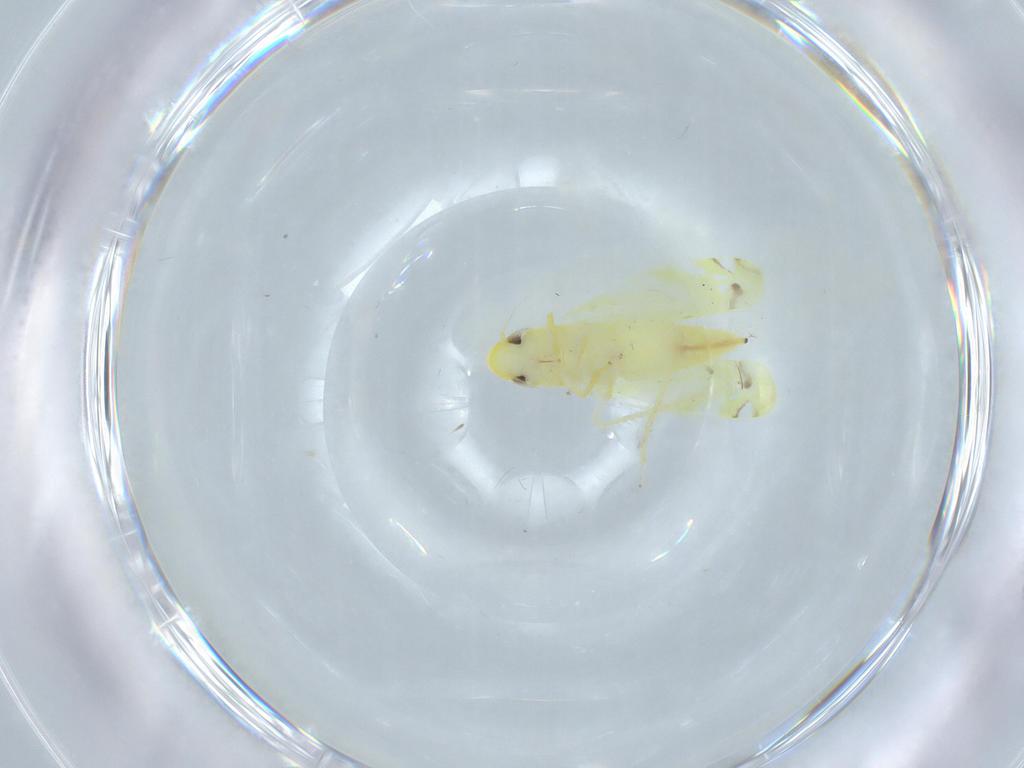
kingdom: Animalia
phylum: Arthropoda
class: Insecta
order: Hemiptera
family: Cicadellidae
